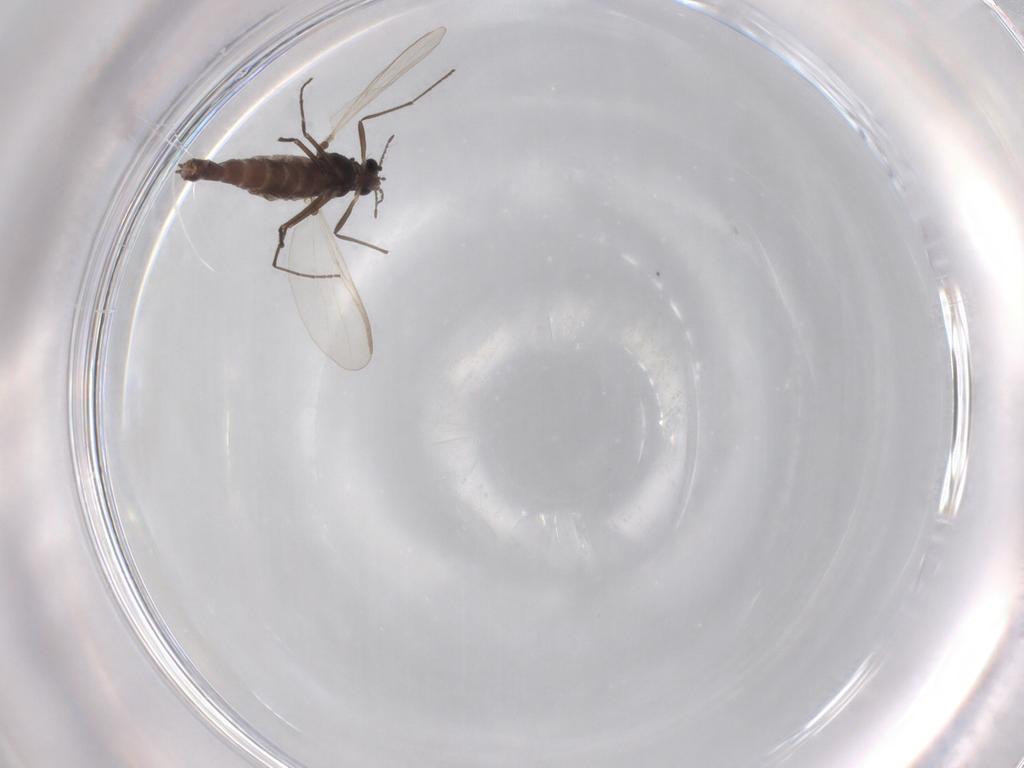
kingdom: Animalia
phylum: Arthropoda
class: Insecta
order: Diptera
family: Chironomidae
